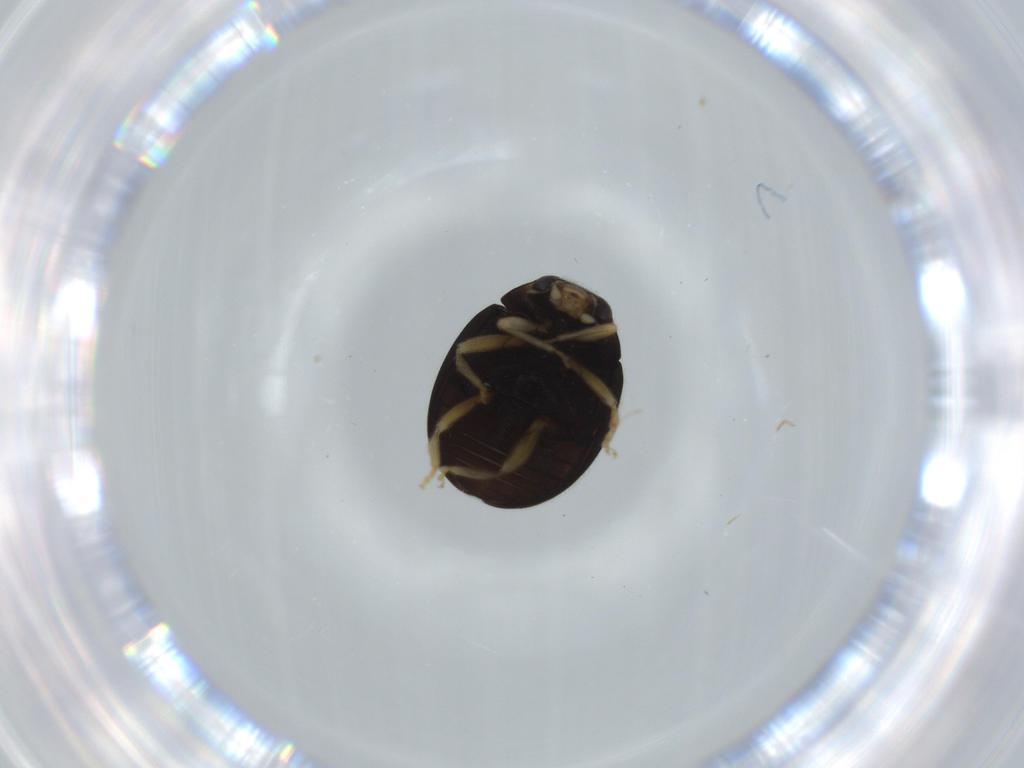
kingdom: Animalia
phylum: Arthropoda
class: Insecta
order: Coleoptera
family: Coccinellidae
